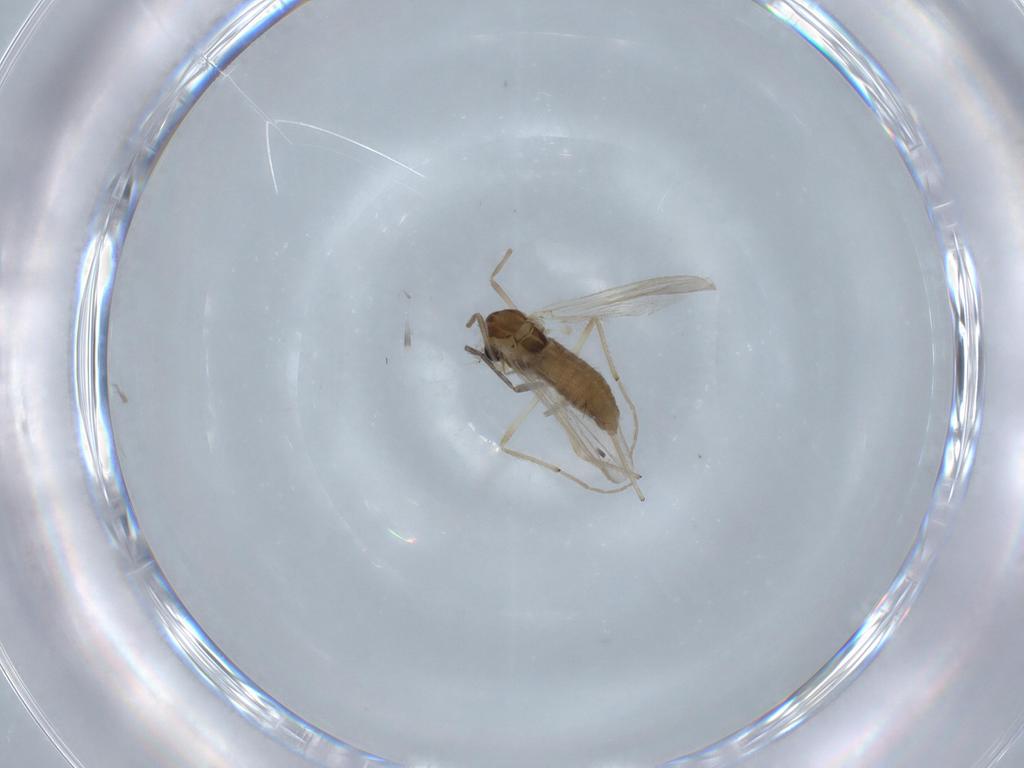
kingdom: Animalia
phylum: Arthropoda
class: Insecta
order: Diptera
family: Chironomidae
